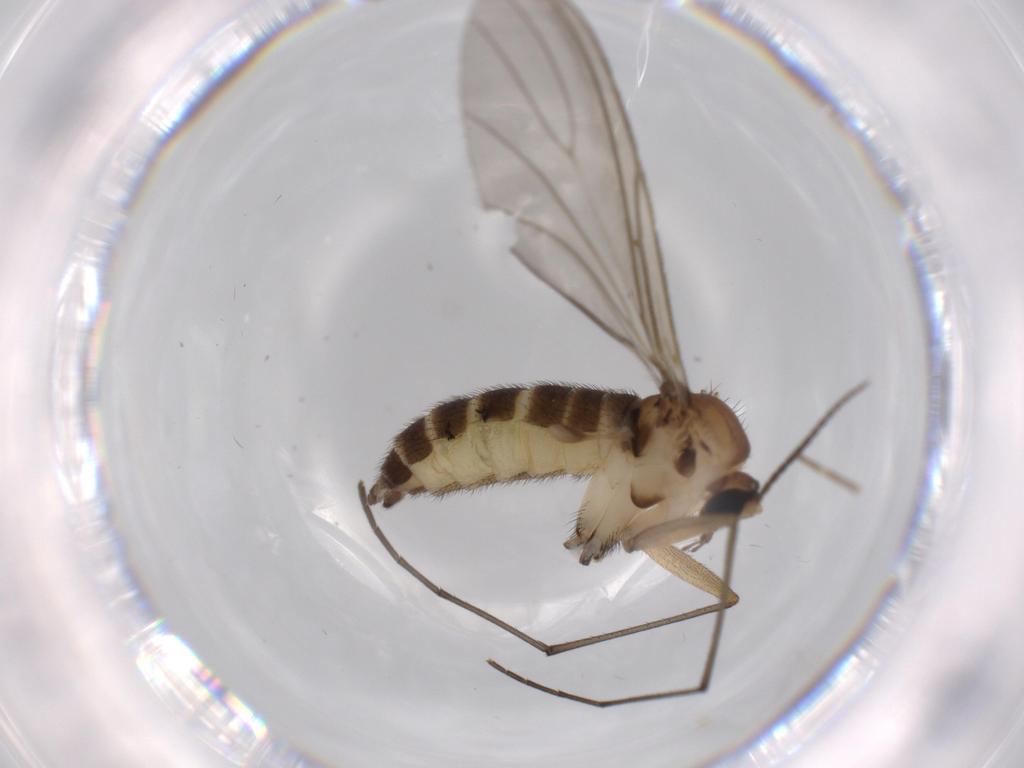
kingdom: Animalia
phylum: Arthropoda
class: Insecta
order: Diptera
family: Sciaridae
